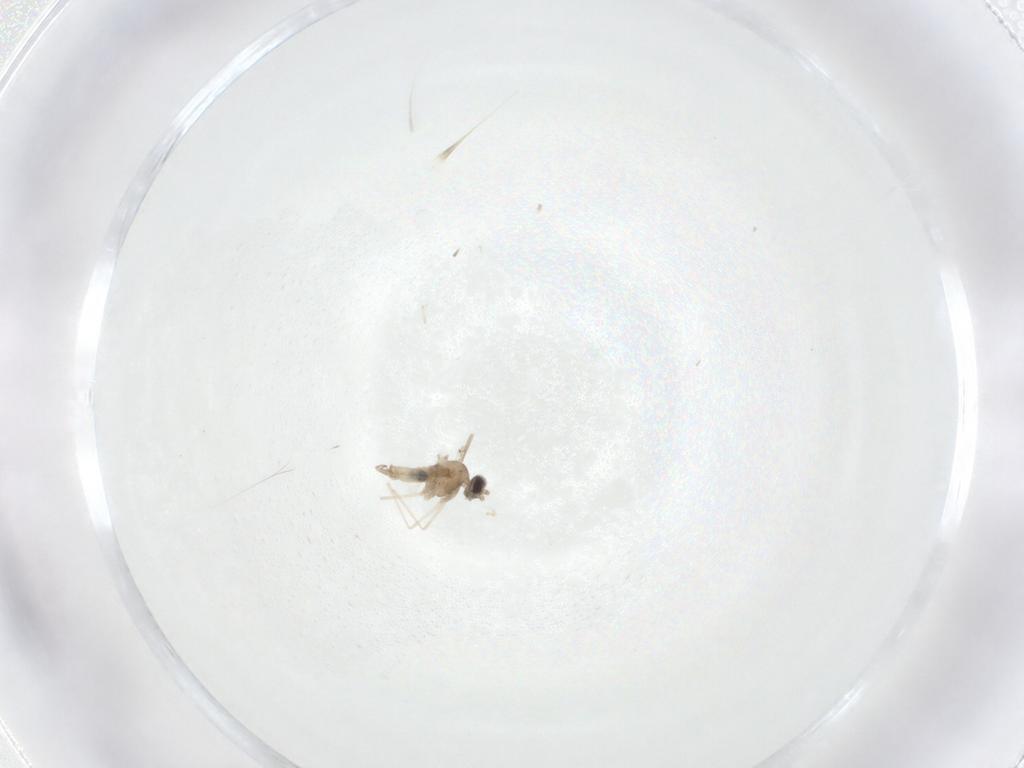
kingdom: Animalia
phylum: Arthropoda
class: Insecta
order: Diptera
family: Cecidomyiidae
